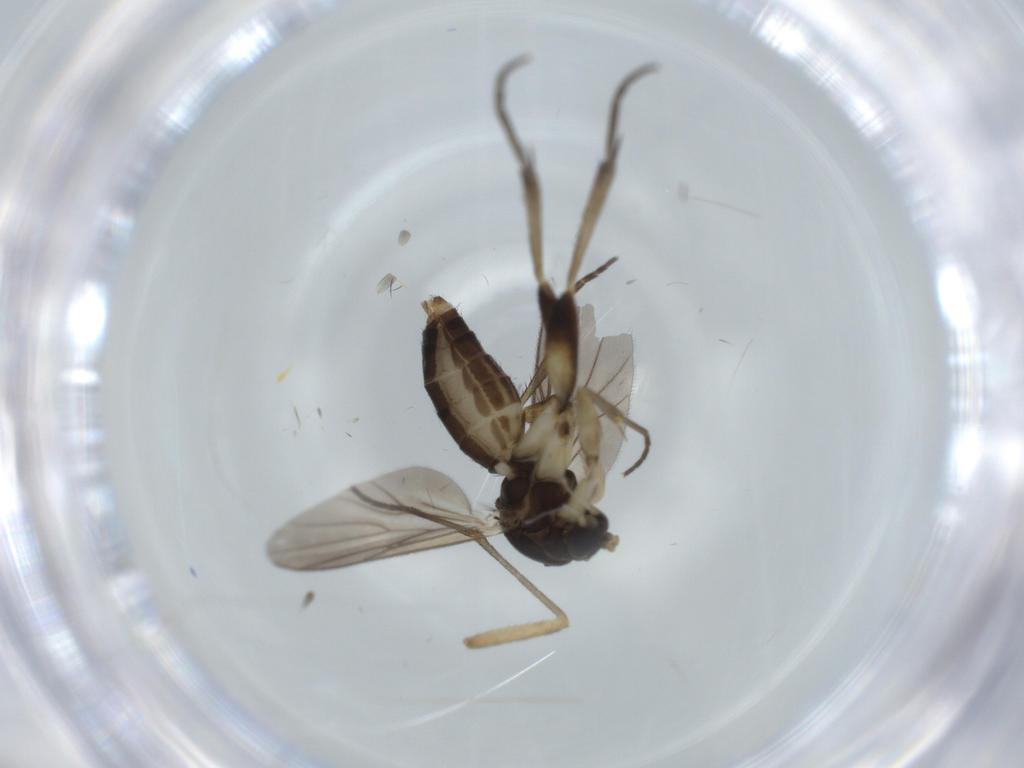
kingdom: Animalia
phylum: Arthropoda
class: Insecta
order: Diptera
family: Mycetophilidae
